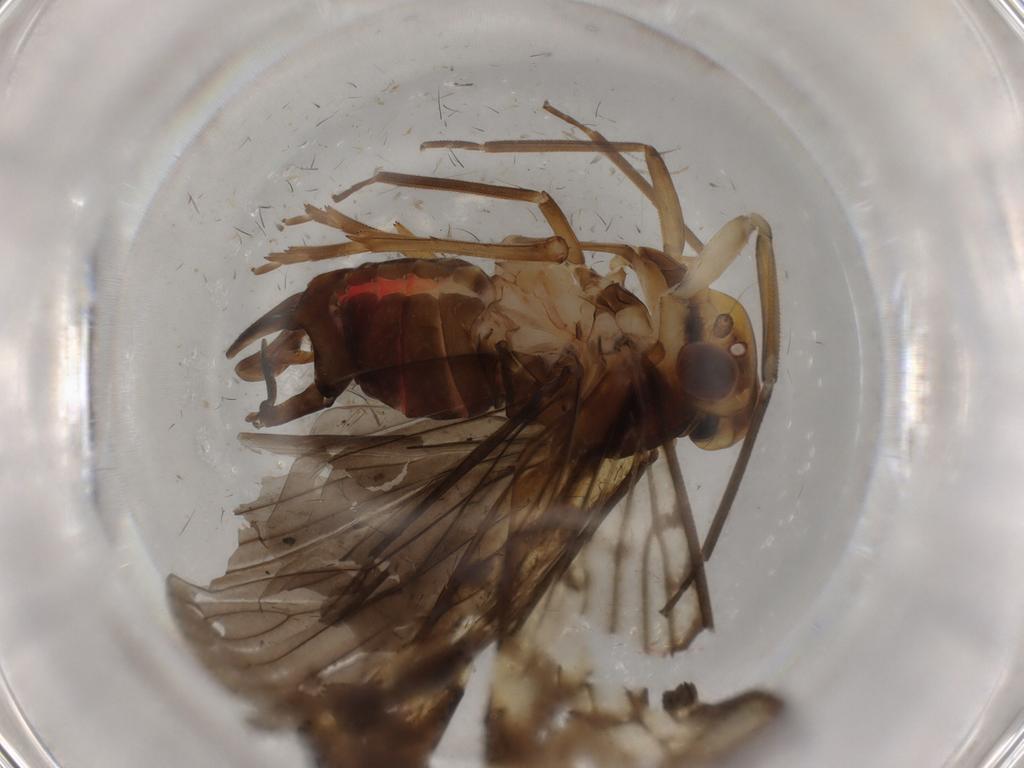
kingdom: Animalia
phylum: Arthropoda
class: Insecta
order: Hemiptera
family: Cixiidae
